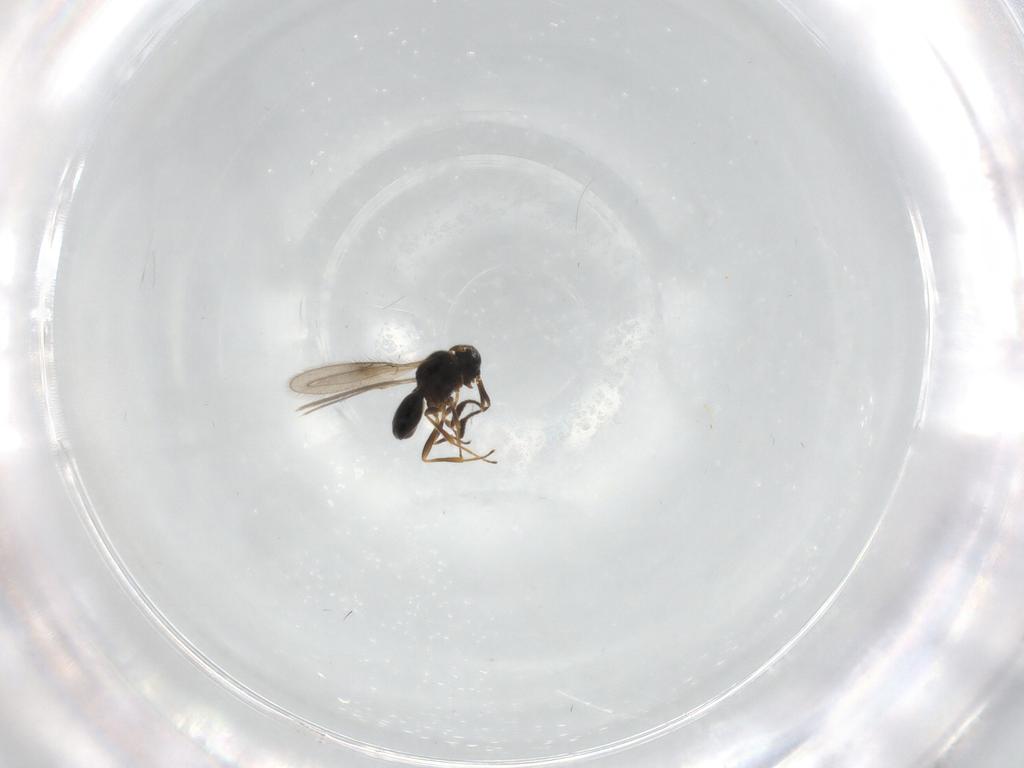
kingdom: Animalia
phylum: Arthropoda
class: Insecta
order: Hymenoptera
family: Scelionidae
